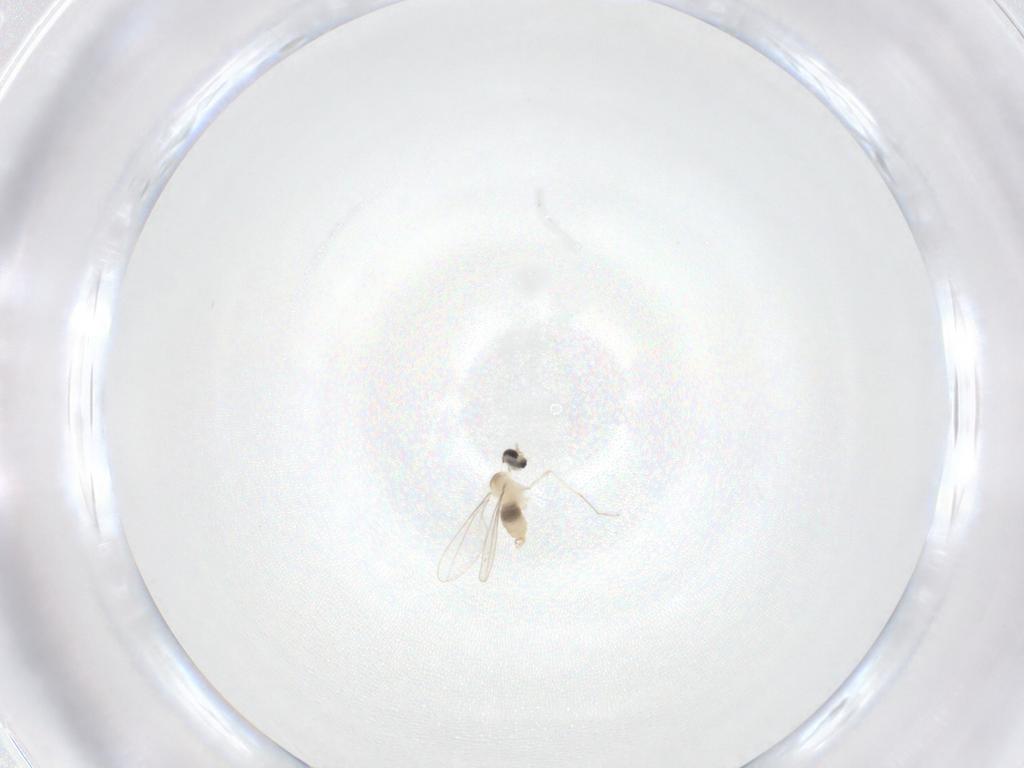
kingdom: Animalia
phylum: Arthropoda
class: Insecta
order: Diptera
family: Cecidomyiidae
